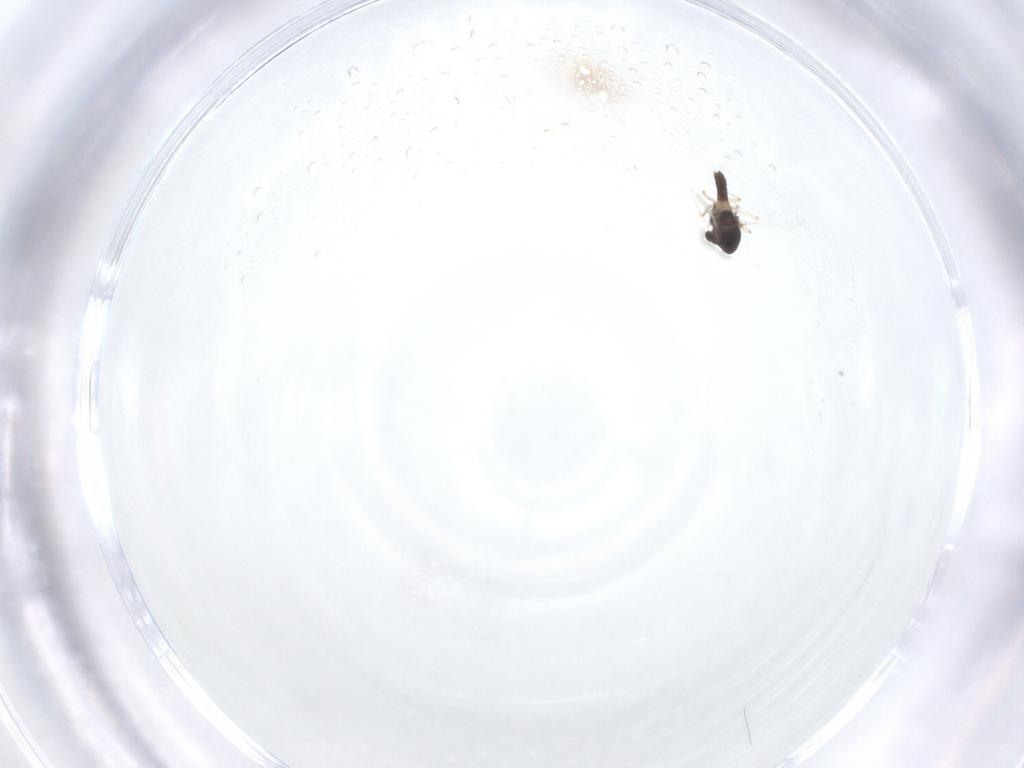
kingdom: Animalia
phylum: Arthropoda
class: Insecta
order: Diptera
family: Chironomidae
